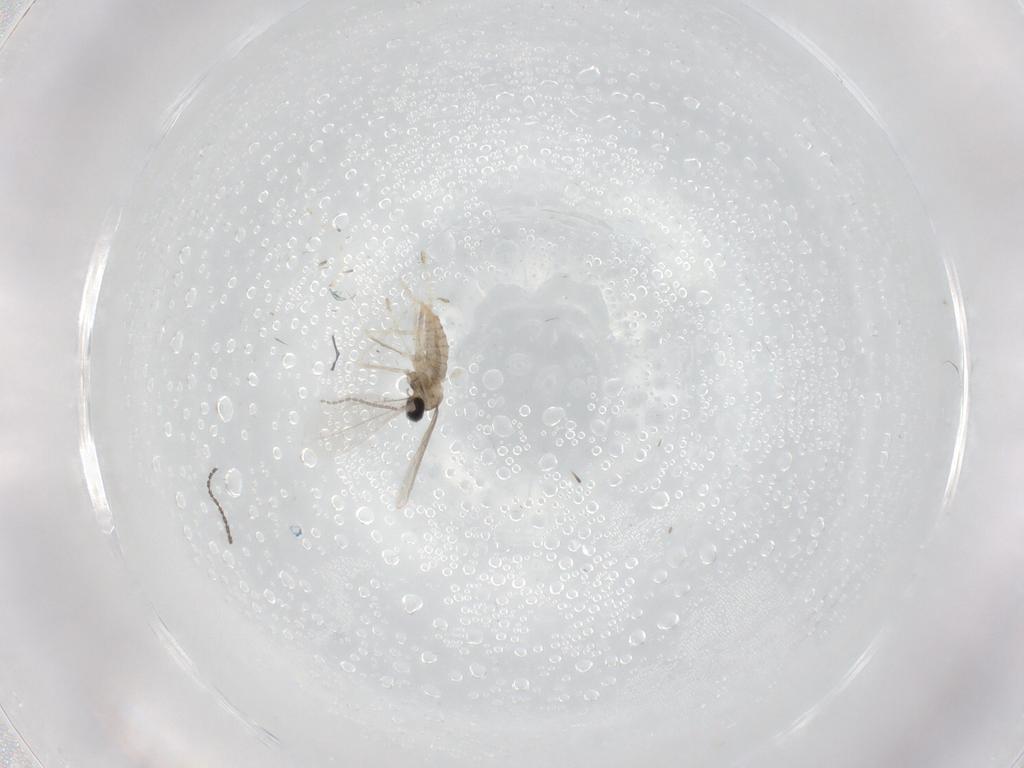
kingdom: Animalia
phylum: Arthropoda
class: Insecta
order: Diptera
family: Cecidomyiidae
